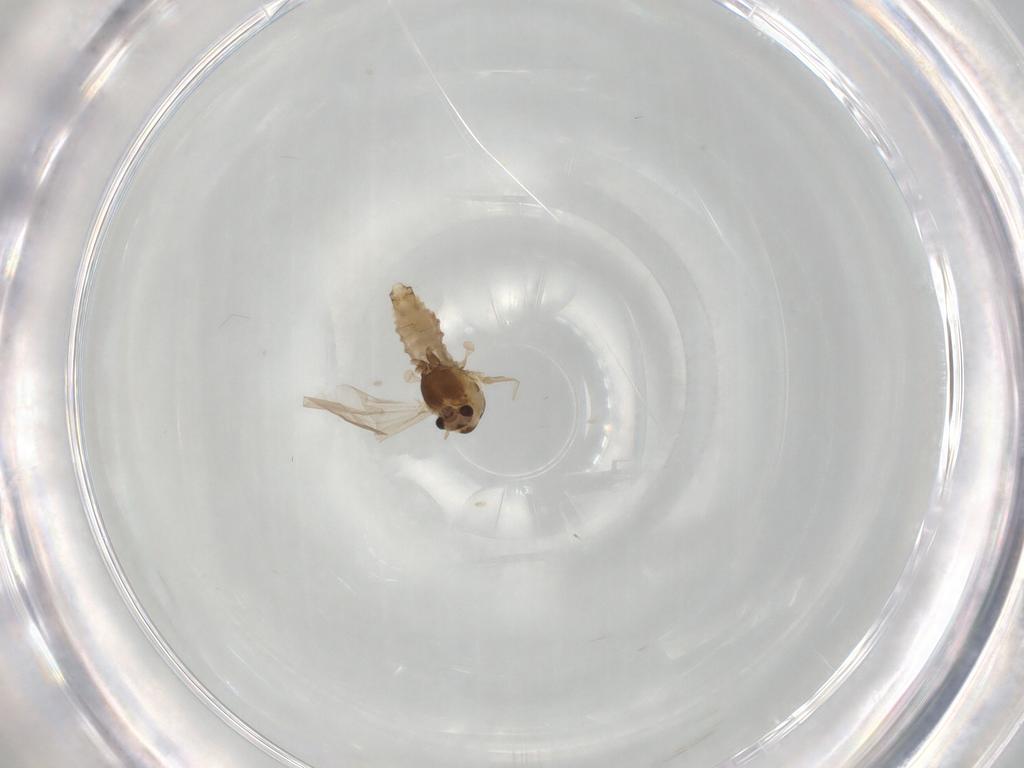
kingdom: Animalia
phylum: Arthropoda
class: Insecta
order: Diptera
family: Chironomidae
